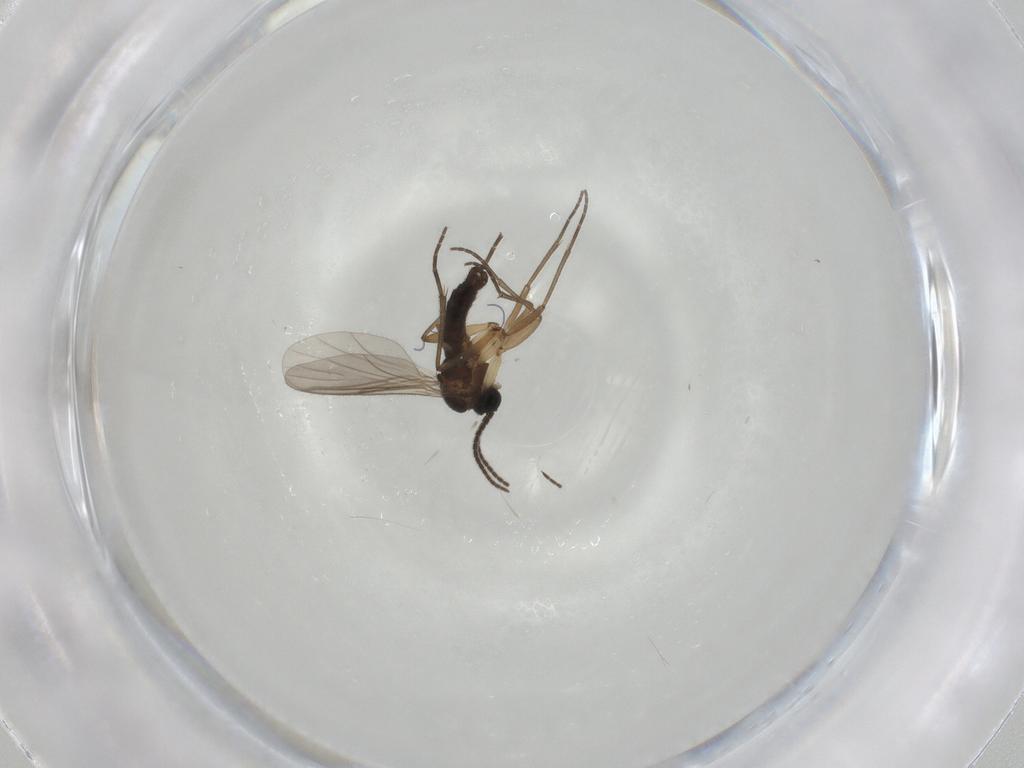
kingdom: Animalia
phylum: Arthropoda
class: Insecta
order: Diptera
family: Sciaridae
